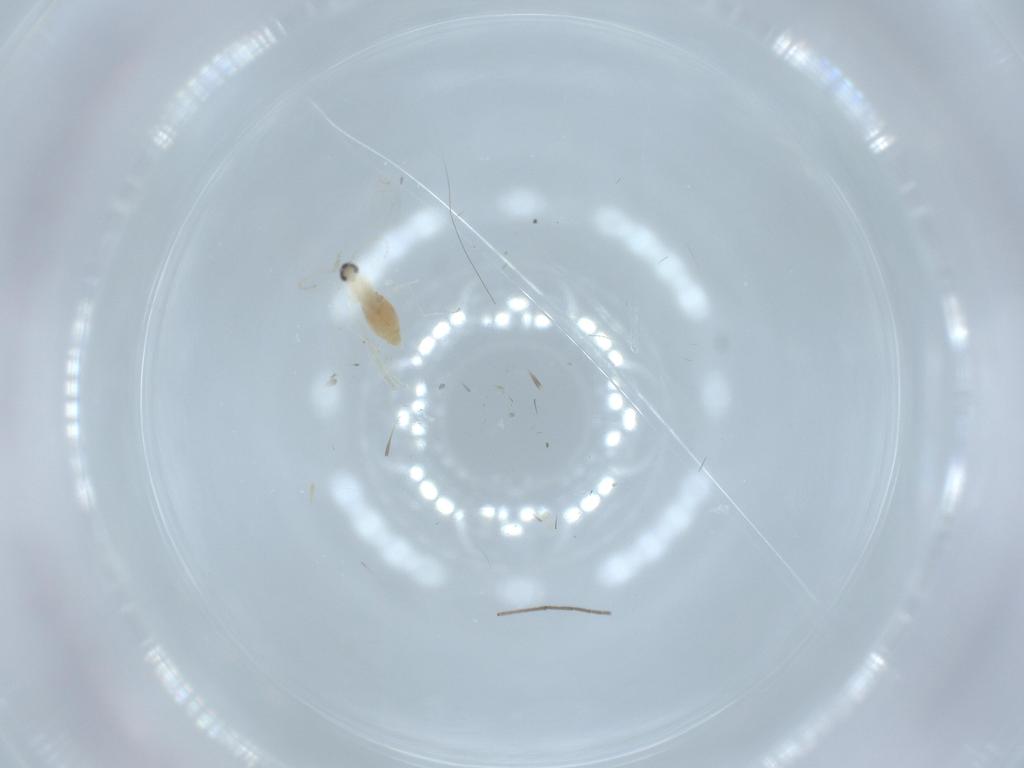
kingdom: Animalia
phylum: Arthropoda
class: Insecta
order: Diptera
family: Cecidomyiidae
